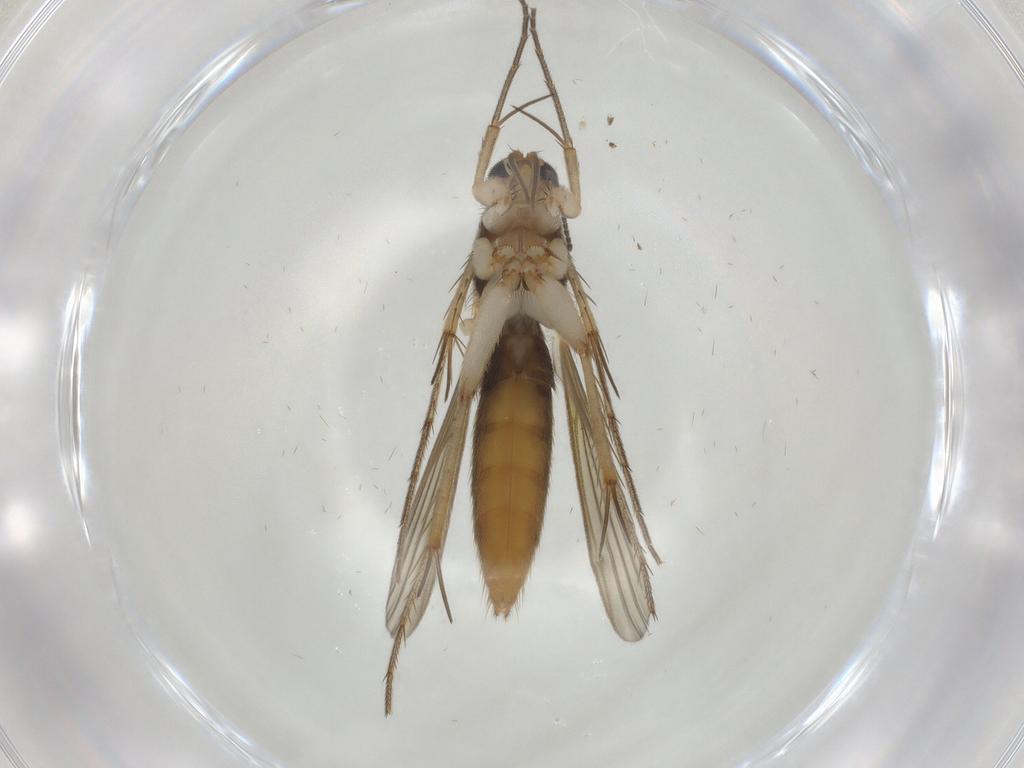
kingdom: Animalia
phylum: Arthropoda
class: Insecta
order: Diptera
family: Mycetophilidae
